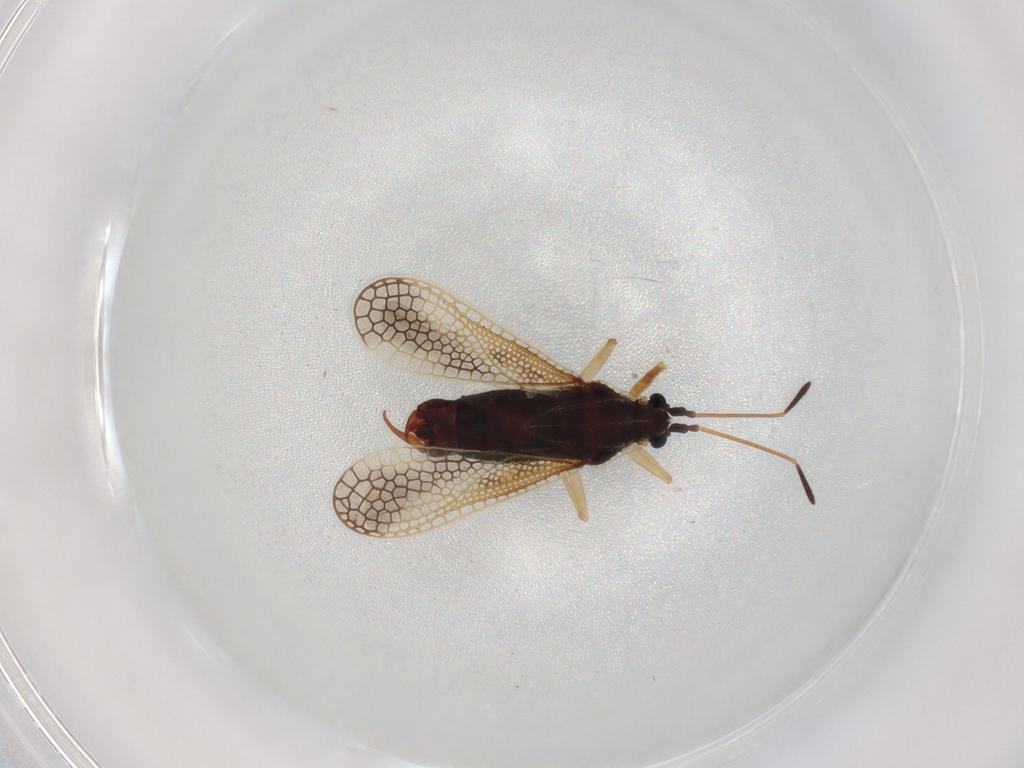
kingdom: Animalia
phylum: Arthropoda
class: Insecta
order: Hemiptera
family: Tingidae
